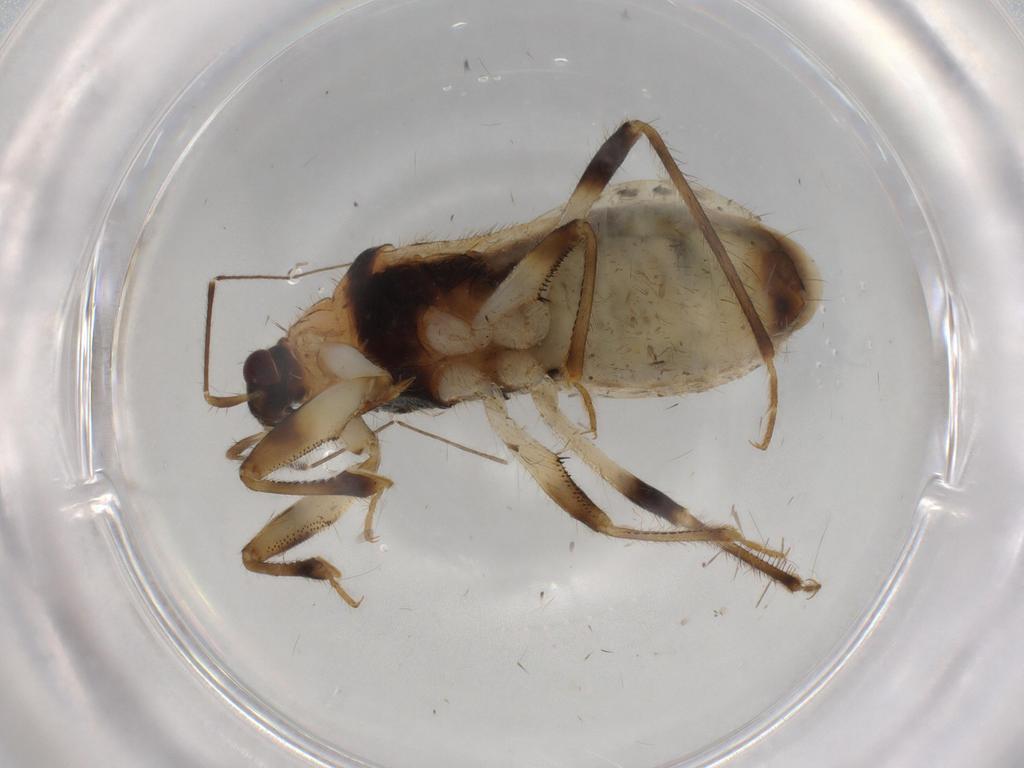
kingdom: Animalia
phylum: Arthropoda
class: Insecta
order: Hemiptera
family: Nabidae
